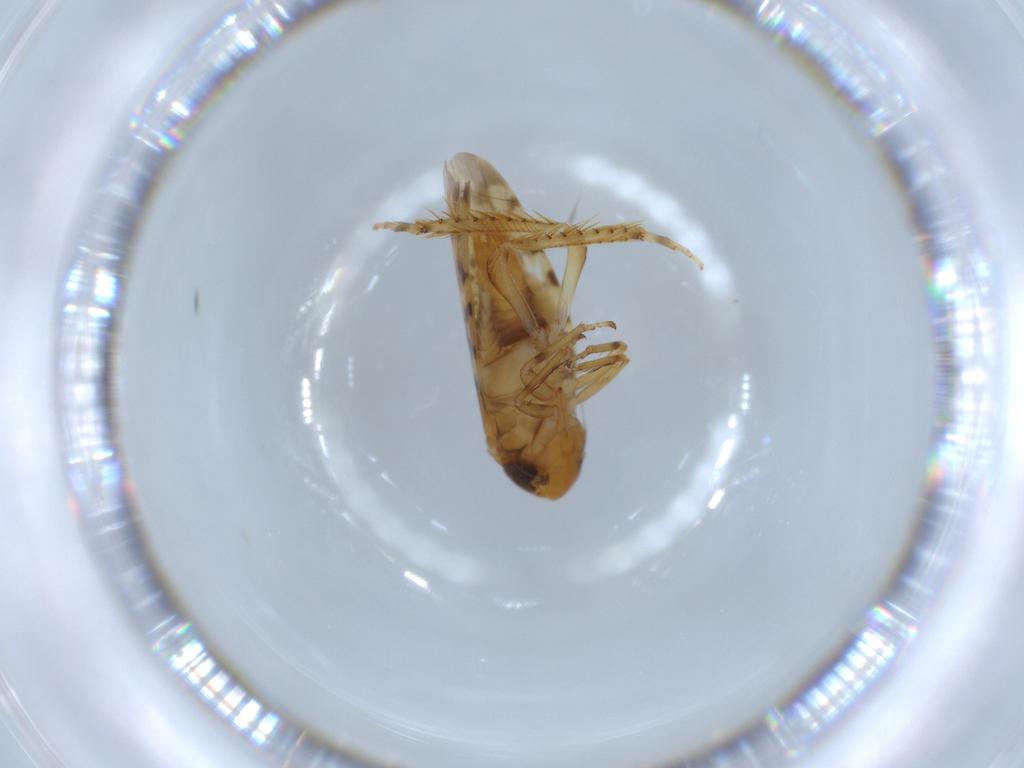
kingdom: Animalia
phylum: Arthropoda
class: Insecta
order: Hemiptera
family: Cicadellidae
